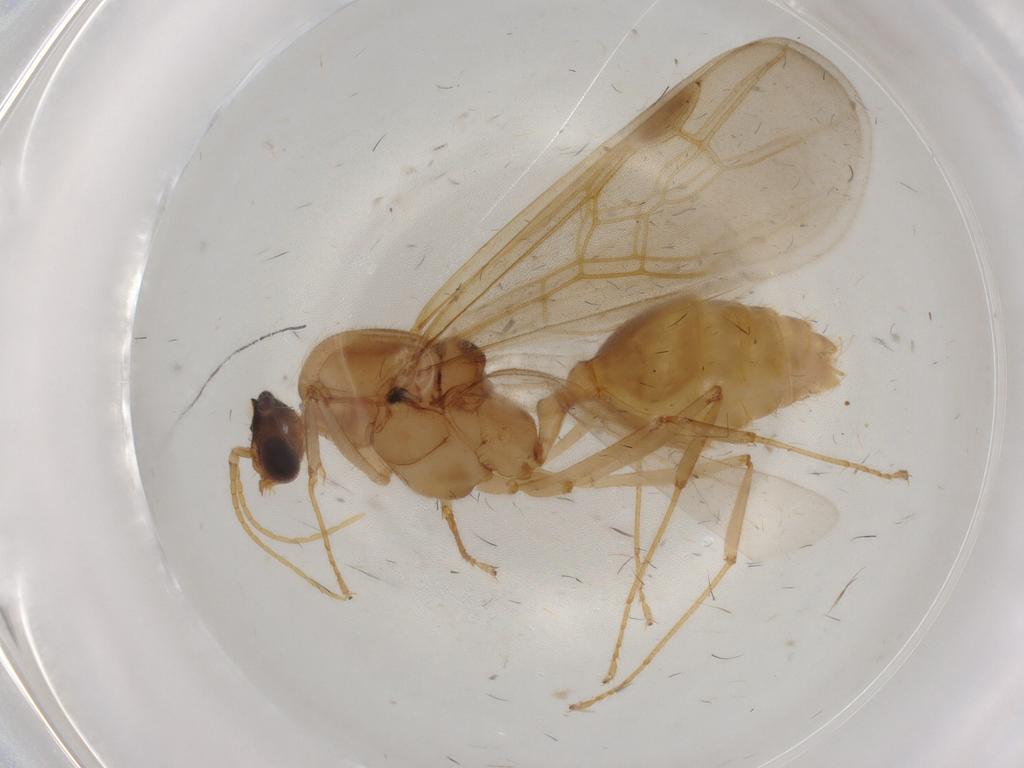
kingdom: Animalia
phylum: Arthropoda
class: Insecta
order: Hymenoptera
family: Formicidae
